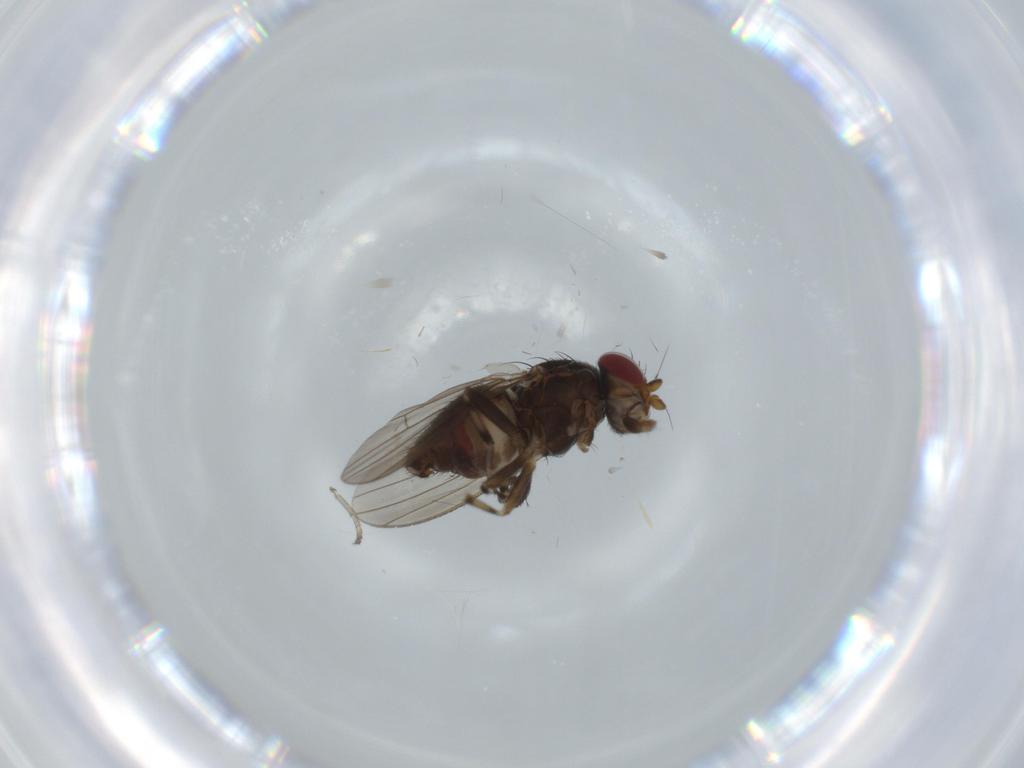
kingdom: Animalia
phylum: Arthropoda
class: Insecta
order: Diptera
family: Heleomyzidae
